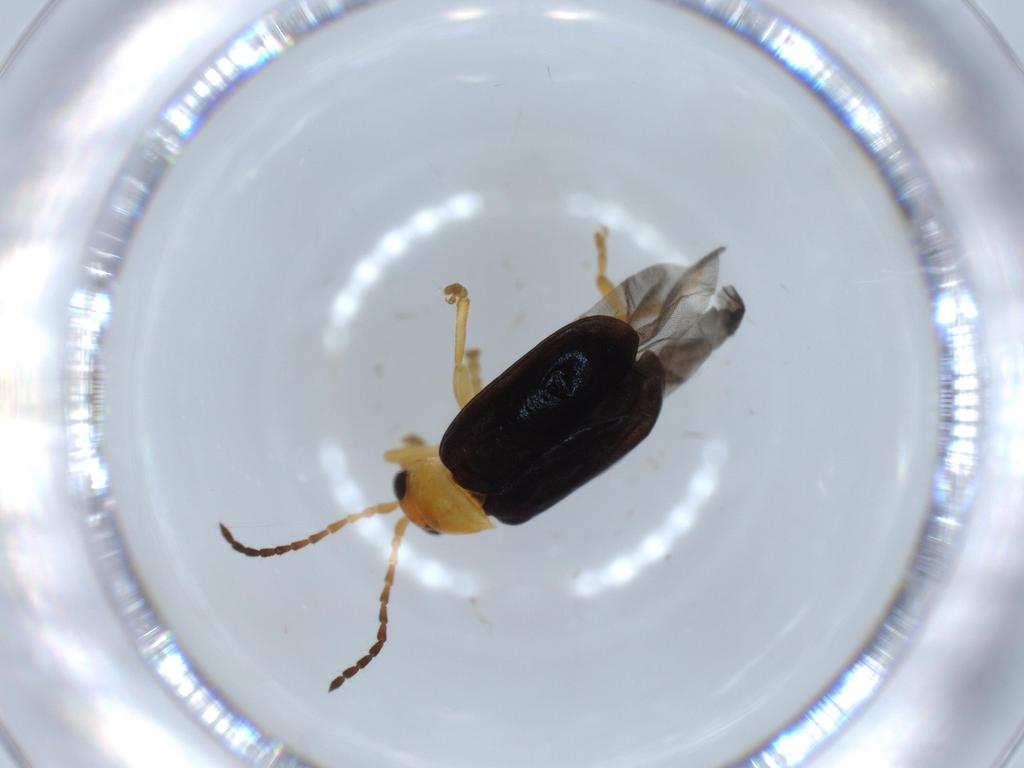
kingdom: Animalia
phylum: Arthropoda
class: Insecta
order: Coleoptera
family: Chrysomelidae
